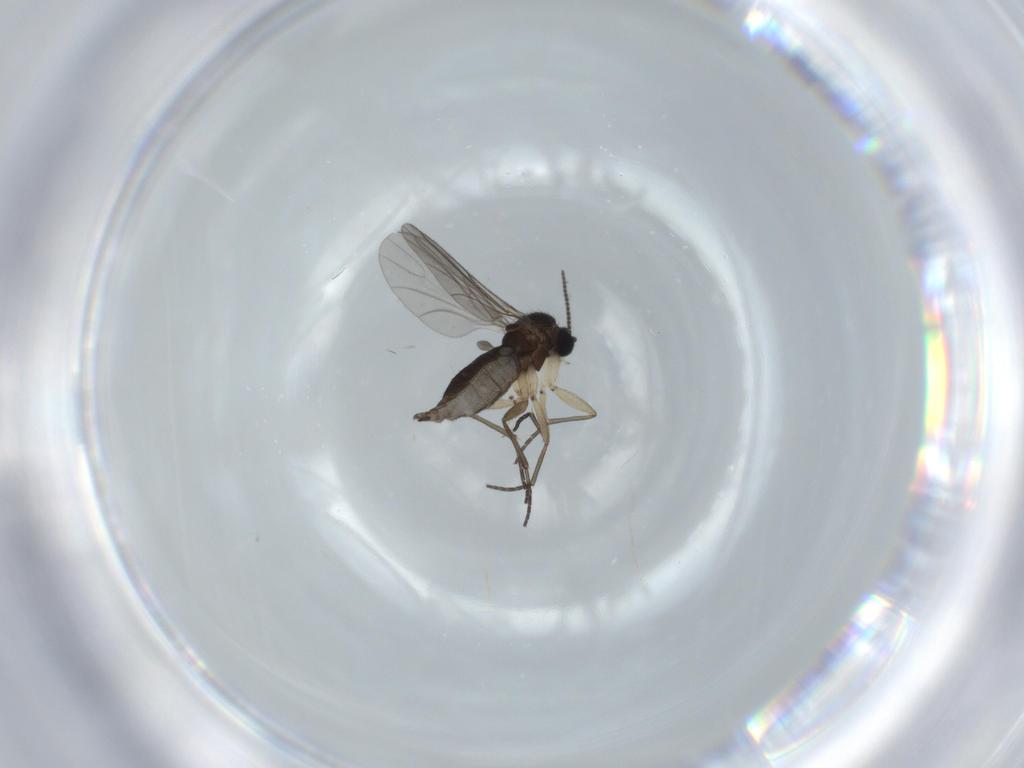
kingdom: Animalia
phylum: Arthropoda
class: Insecta
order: Diptera
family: Sciaridae
